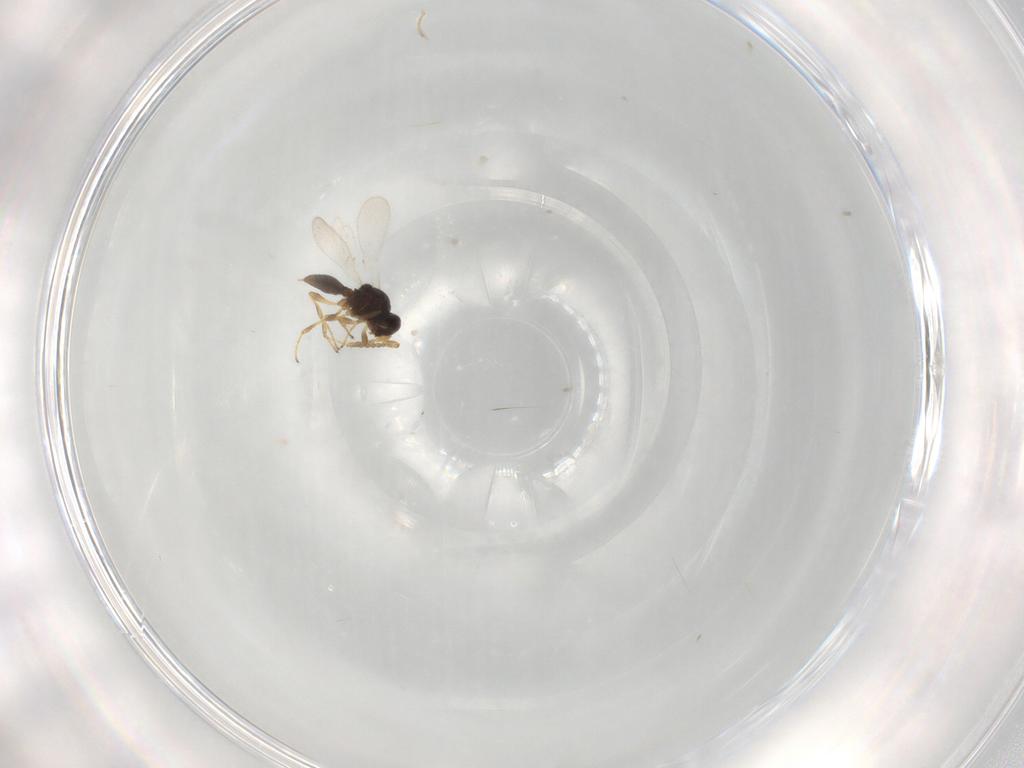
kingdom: Animalia
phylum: Arthropoda
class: Insecta
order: Hymenoptera
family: Platygastridae
